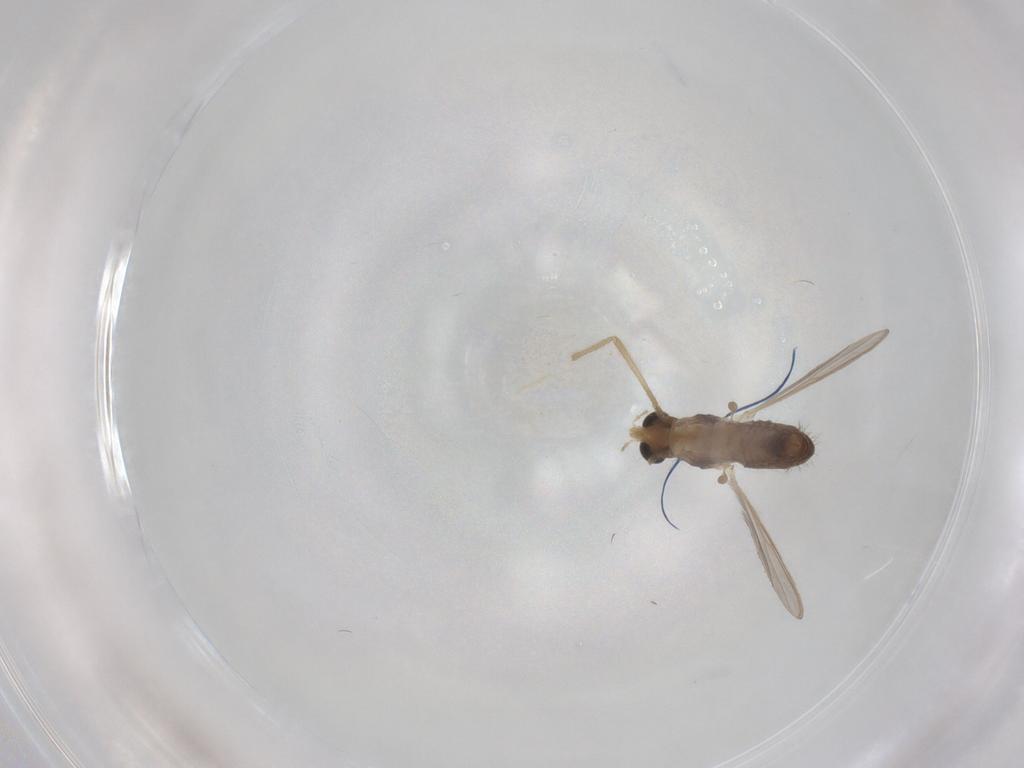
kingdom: Animalia
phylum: Arthropoda
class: Insecta
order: Diptera
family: Chironomidae
